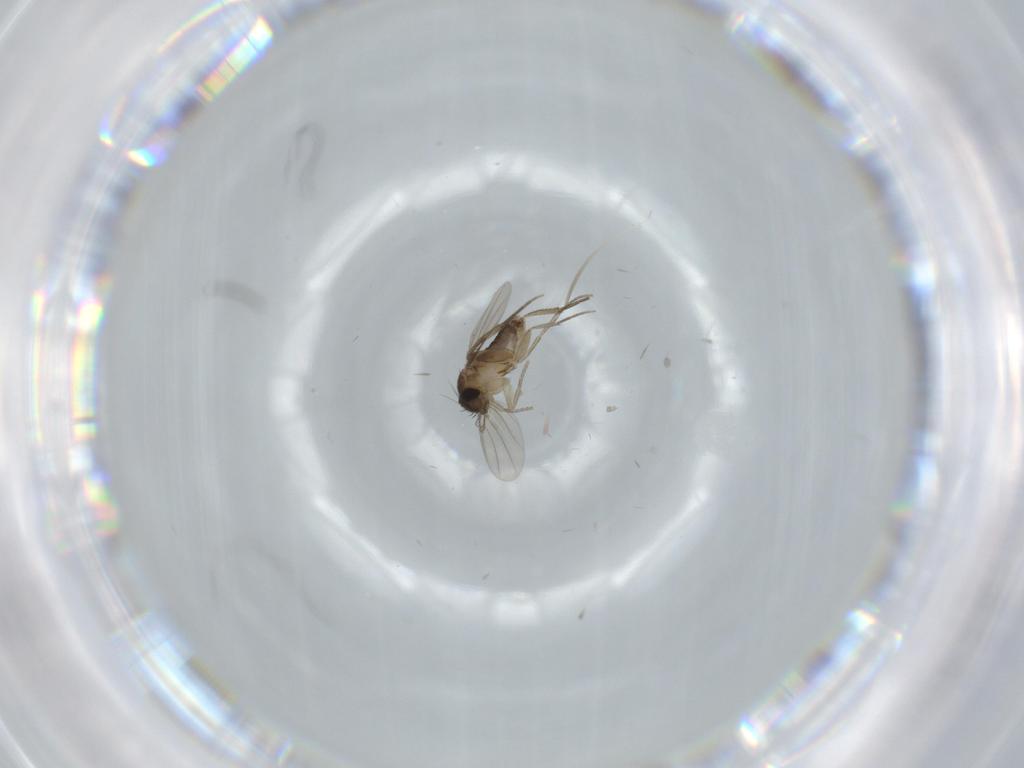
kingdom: Animalia
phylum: Arthropoda
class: Insecta
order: Diptera
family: Phoridae
